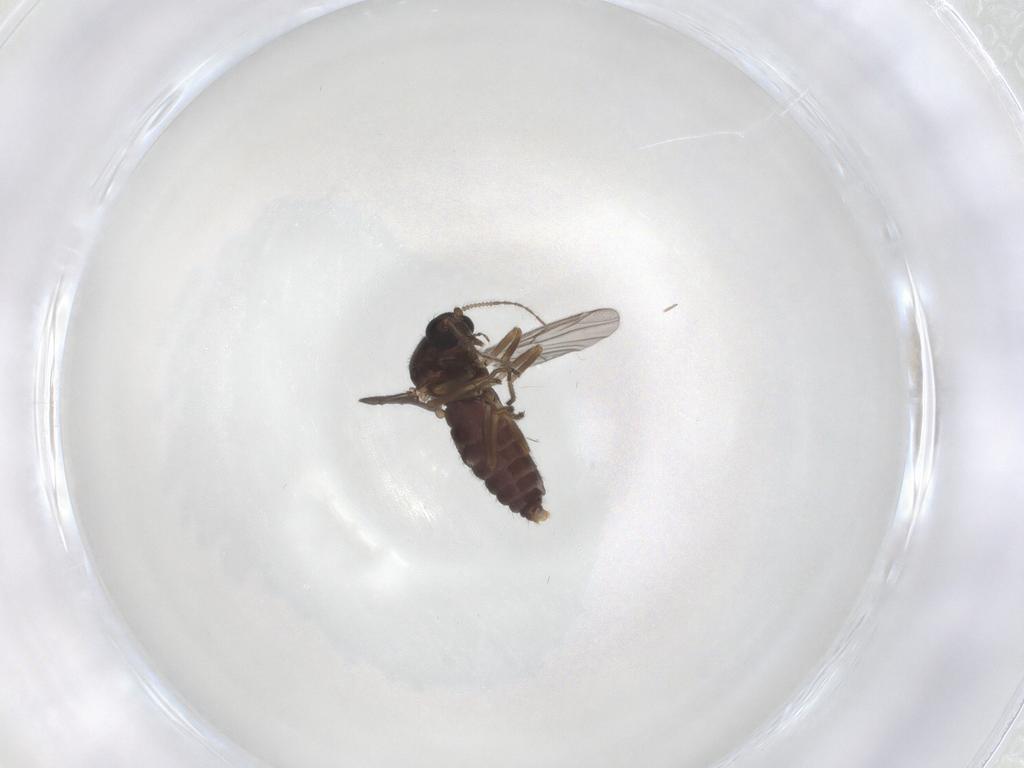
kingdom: Animalia
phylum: Arthropoda
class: Insecta
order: Diptera
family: Ceratopogonidae
